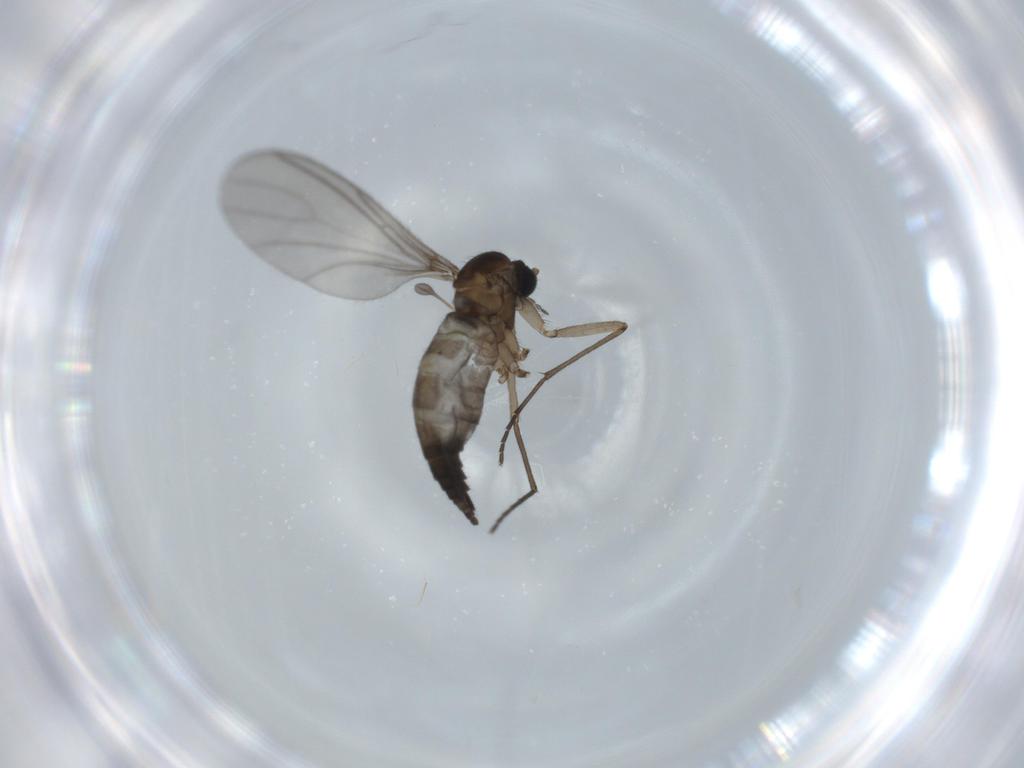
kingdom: Animalia
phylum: Arthropoda
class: Insecta
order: Diptera
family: Sciaridae
